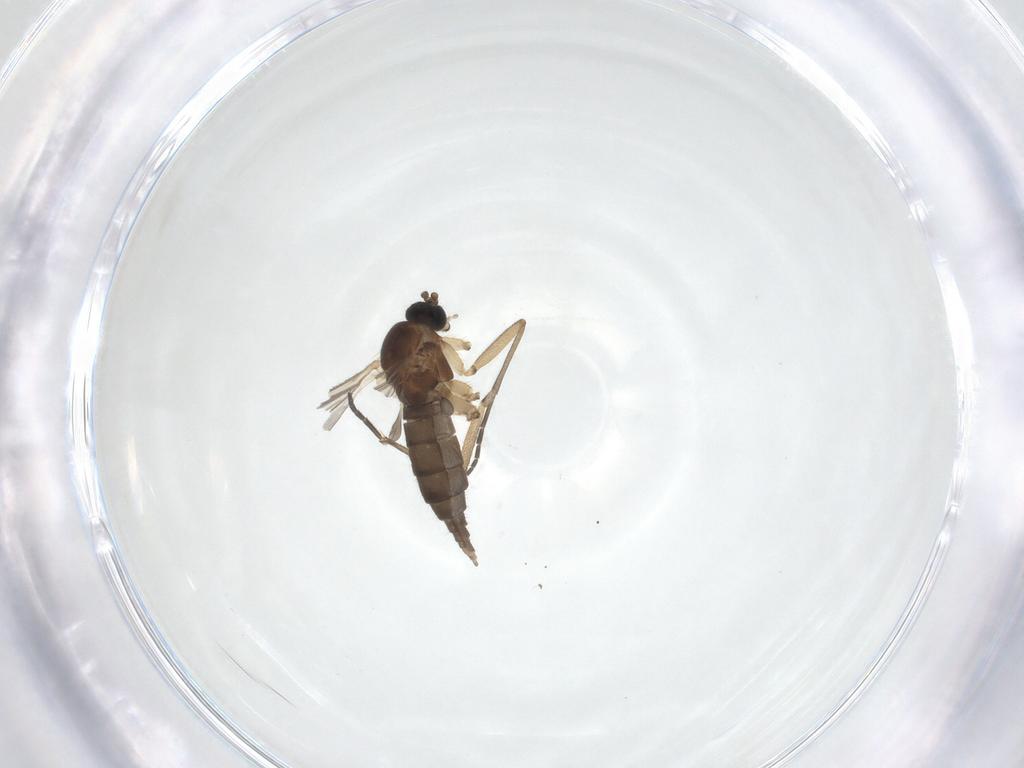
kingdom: Animalia
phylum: Arthropoda
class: Insecta
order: Diptera
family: Sciaridae
